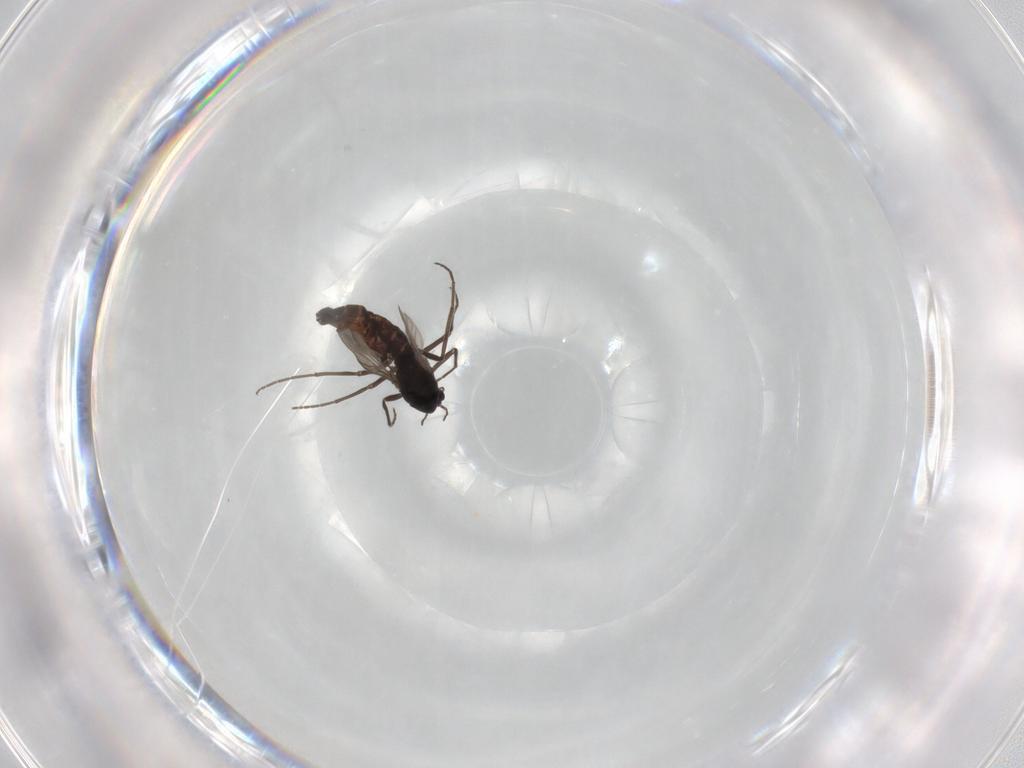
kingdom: Animalia
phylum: Arthropoda
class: Insecta
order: Diptera
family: Chironomidae
